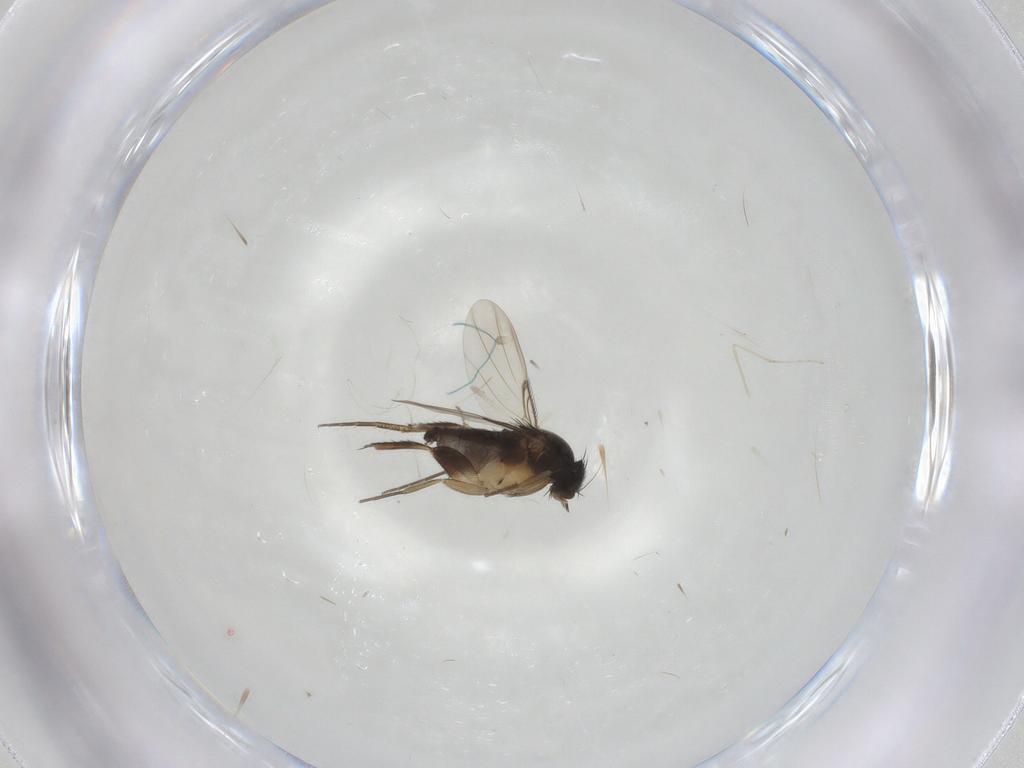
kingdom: Animalia
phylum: Arthropoda
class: Insecta
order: Diptera
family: Phoridae
